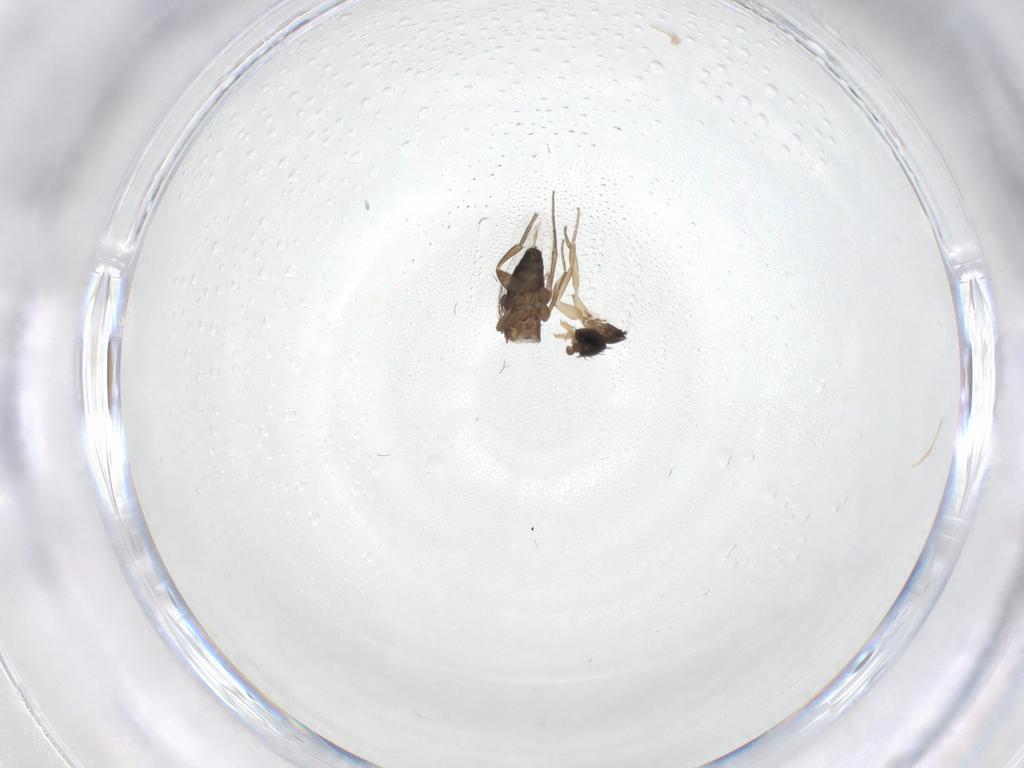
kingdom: Animalia
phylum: Arthropoda
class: Insecta
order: Diptera
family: Phoridae
